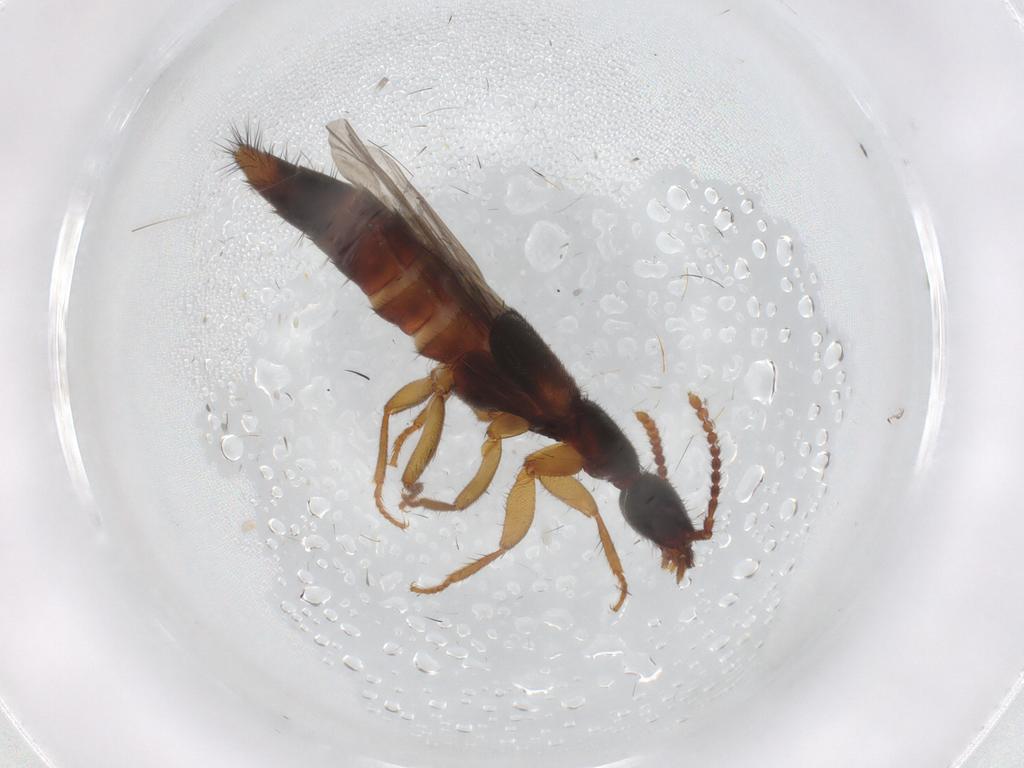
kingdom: Animalia
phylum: Arthropoda
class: Insecta
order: Coleoptera
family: Staphylinidae
